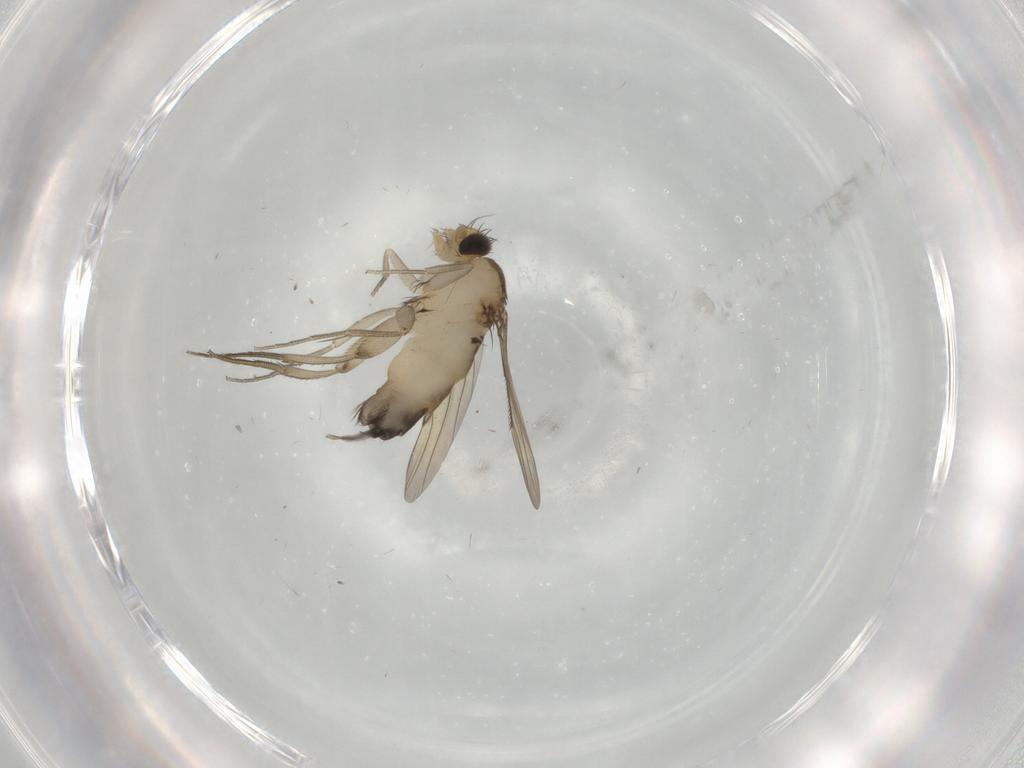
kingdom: Animalia
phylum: Arthropoda
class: Insecta
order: Diptera
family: Phoridae
